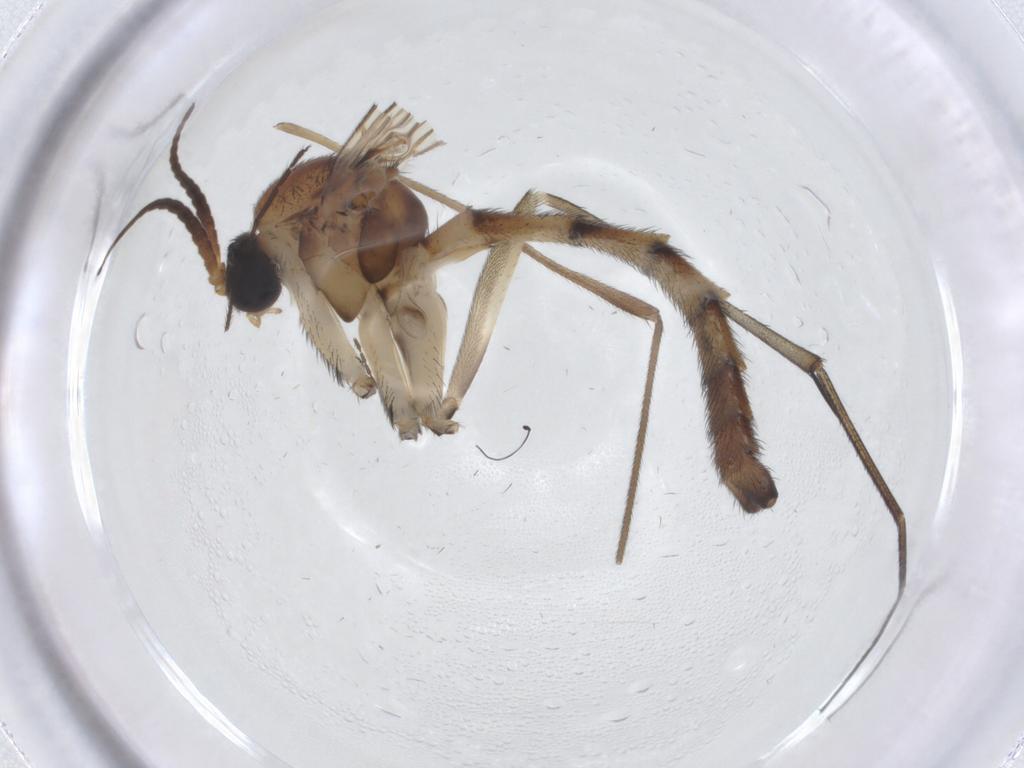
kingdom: Animalia
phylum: Arthropoda
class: Insecta
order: Diptera
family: Keroplatidae
